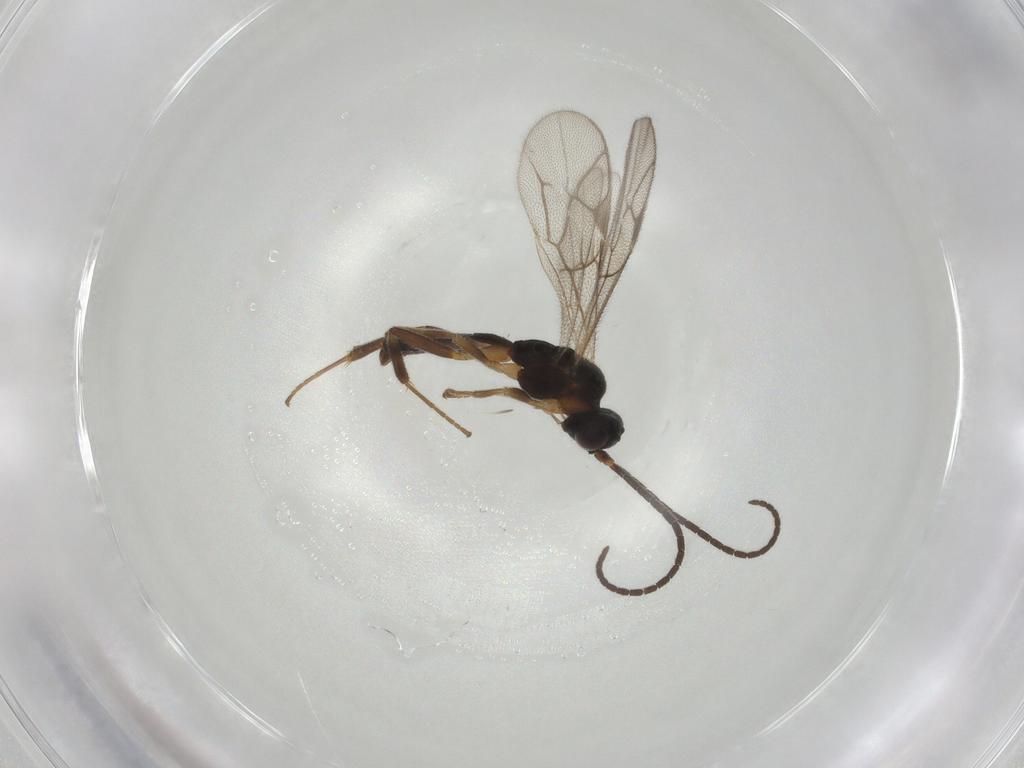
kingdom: Animalia
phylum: Arthropoda
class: Insecta
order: Hymenoptera
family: Ichneumonidae
